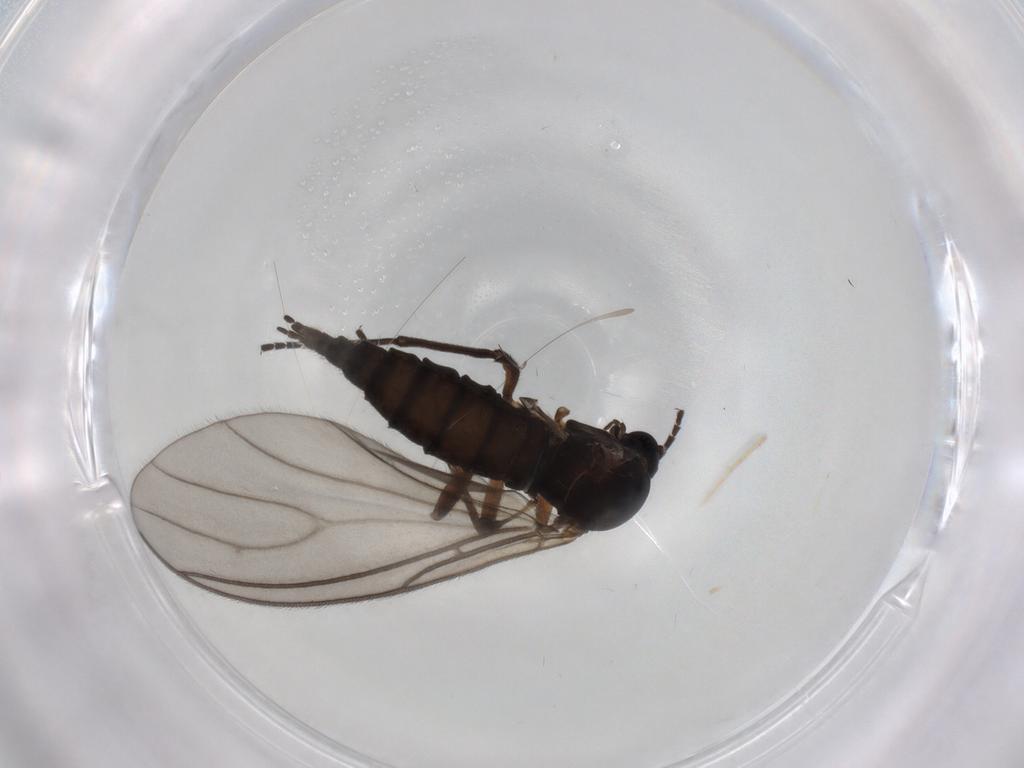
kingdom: Animalia
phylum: Arthropoda
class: Insecta
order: Diptera
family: Sciaridae
